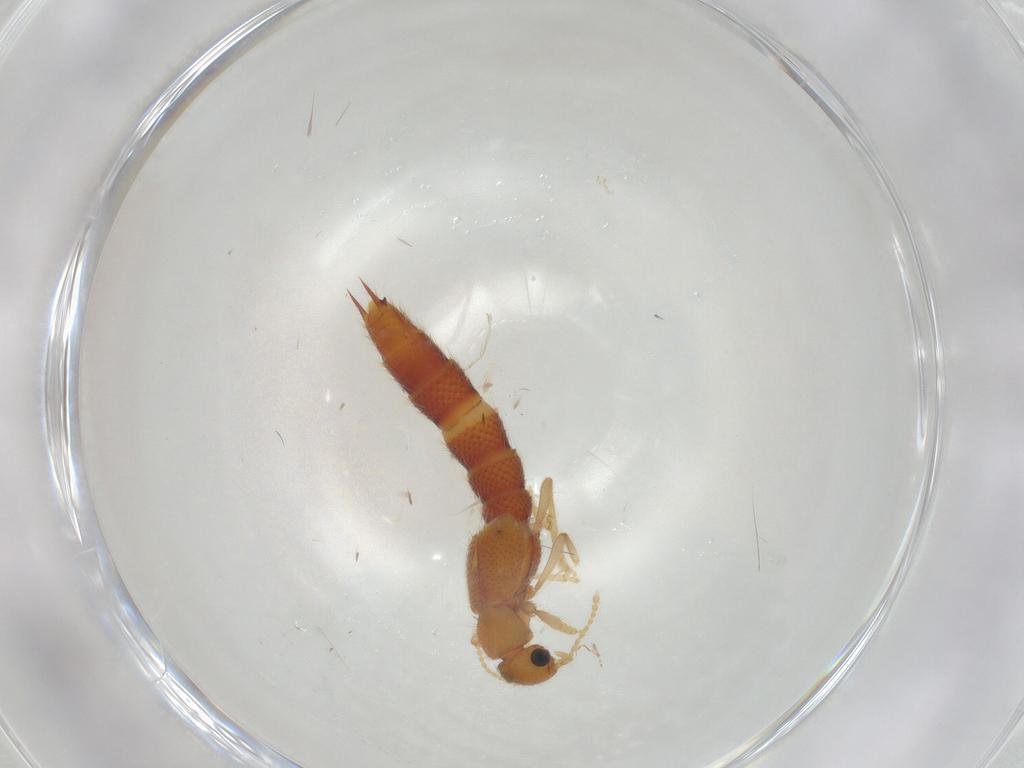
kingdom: Animalia
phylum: Arthropoda
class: Insecta
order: Coleoptera
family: Staphylinidae
